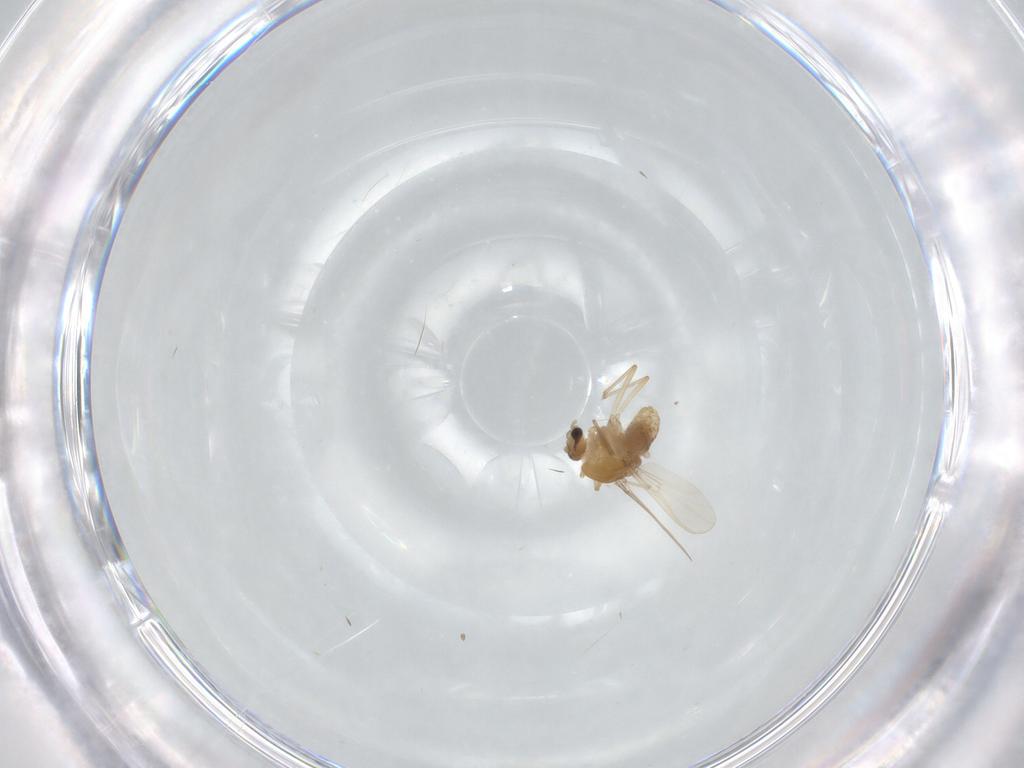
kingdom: Animalia
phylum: Arthropoda
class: Insecta
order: Diptera
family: Chironomidae
